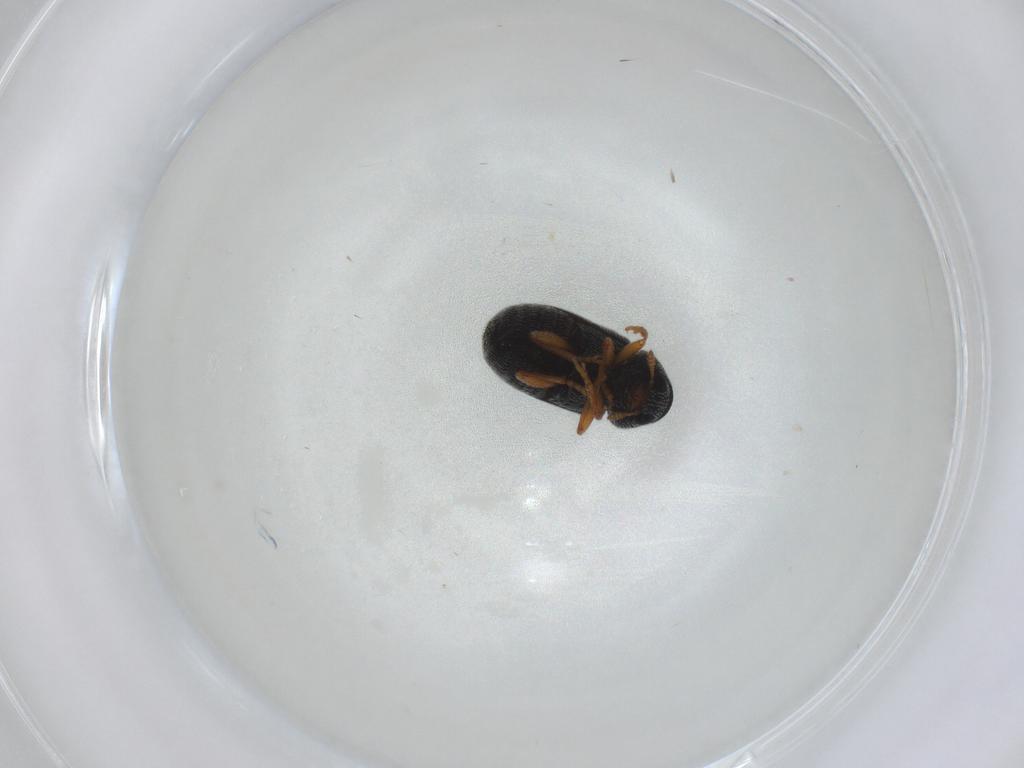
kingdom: Animalia
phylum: Arthropoda
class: Insecta
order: Coleoptera
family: Anthribidae
